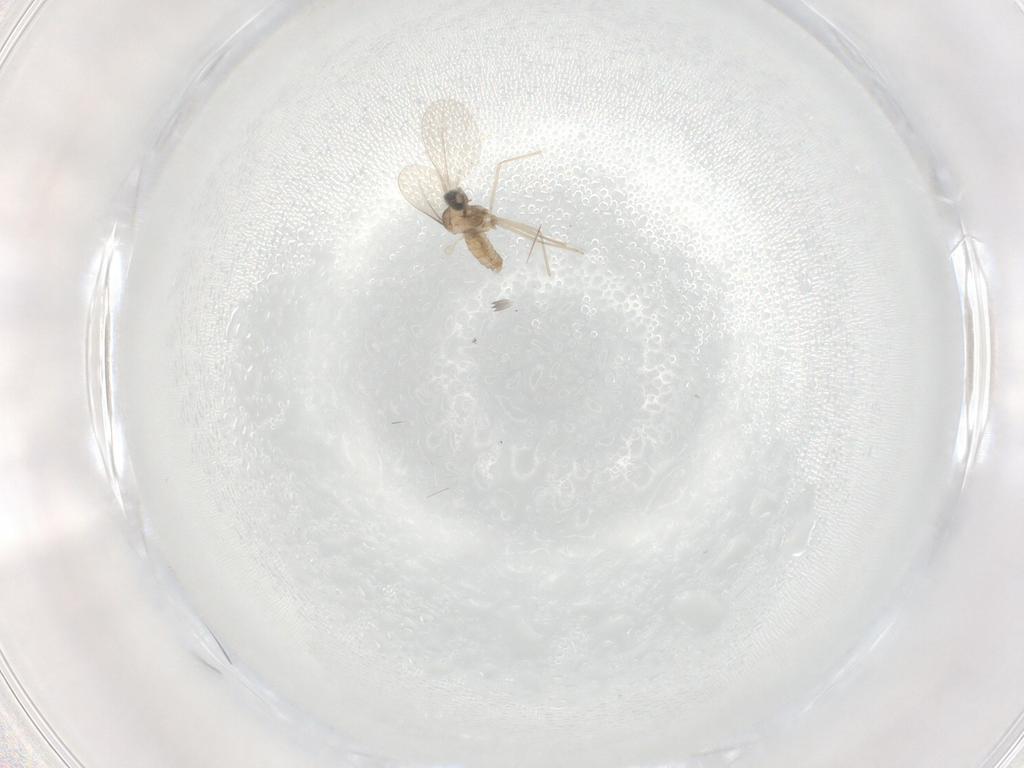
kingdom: Animalia
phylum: Arthropoda
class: Insecta
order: Diptera
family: Cecidomyiidae
